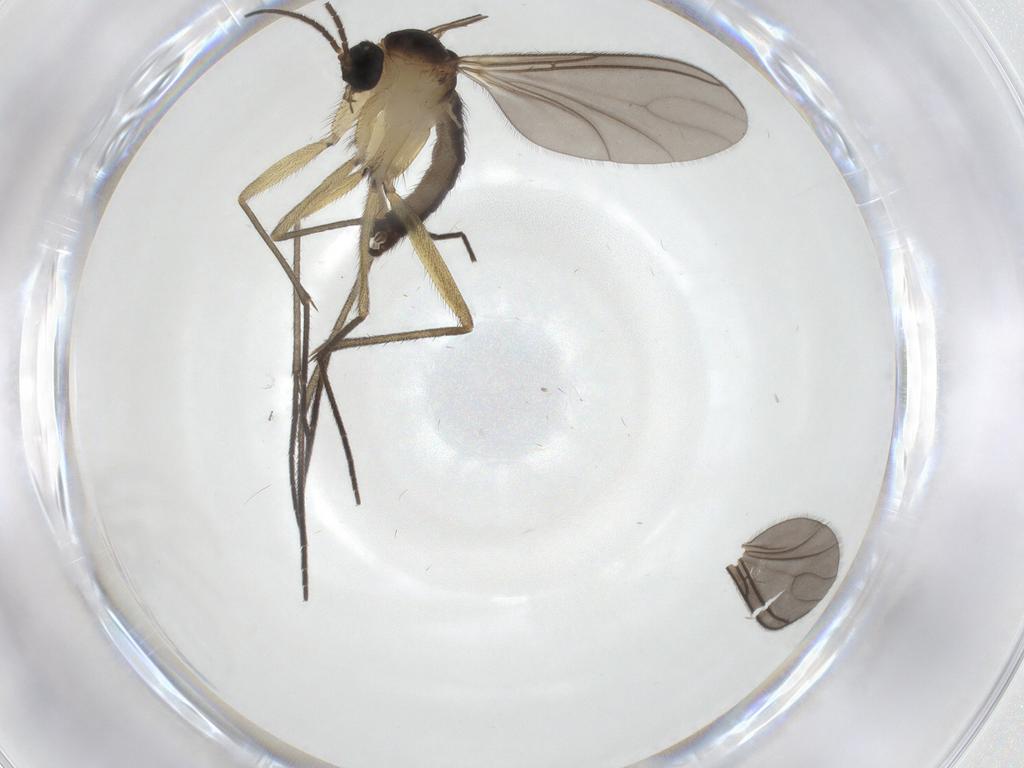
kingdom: Animalia
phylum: Arthropoda
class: Insecta
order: Diptera
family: Sciaridae
